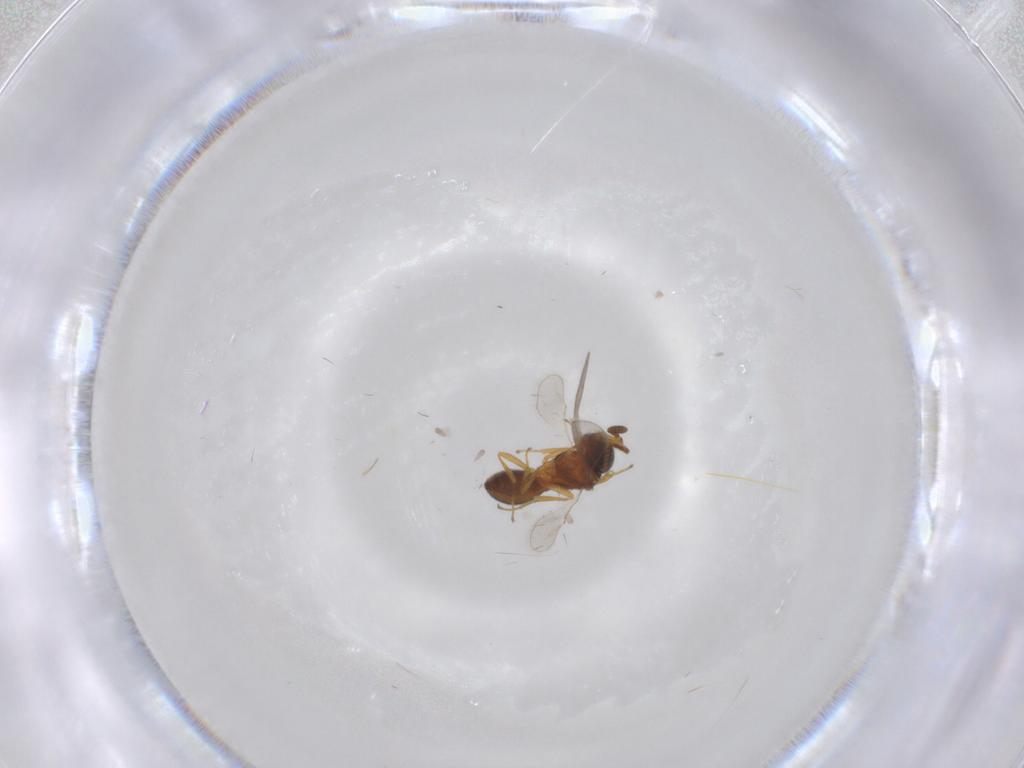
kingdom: Animalia
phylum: Arthropoda
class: Insecta
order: Hymenoptera
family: Scelionidae
